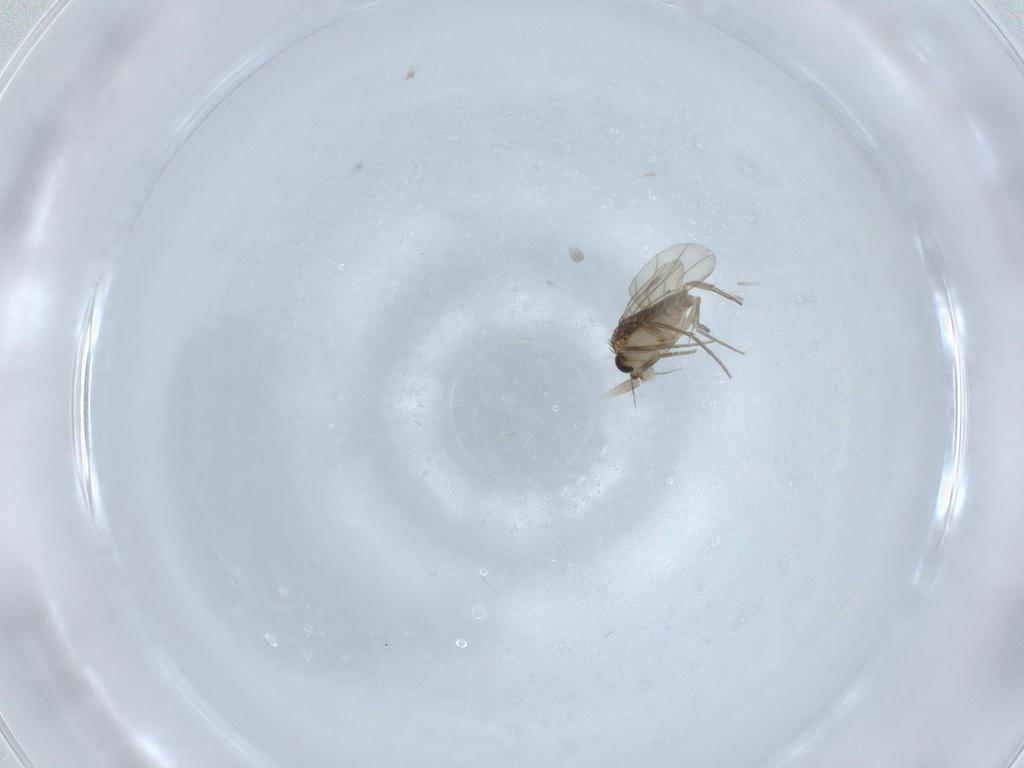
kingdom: Animalia
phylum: Arthropoda
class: Insecta
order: Diptera
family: Phoridae
